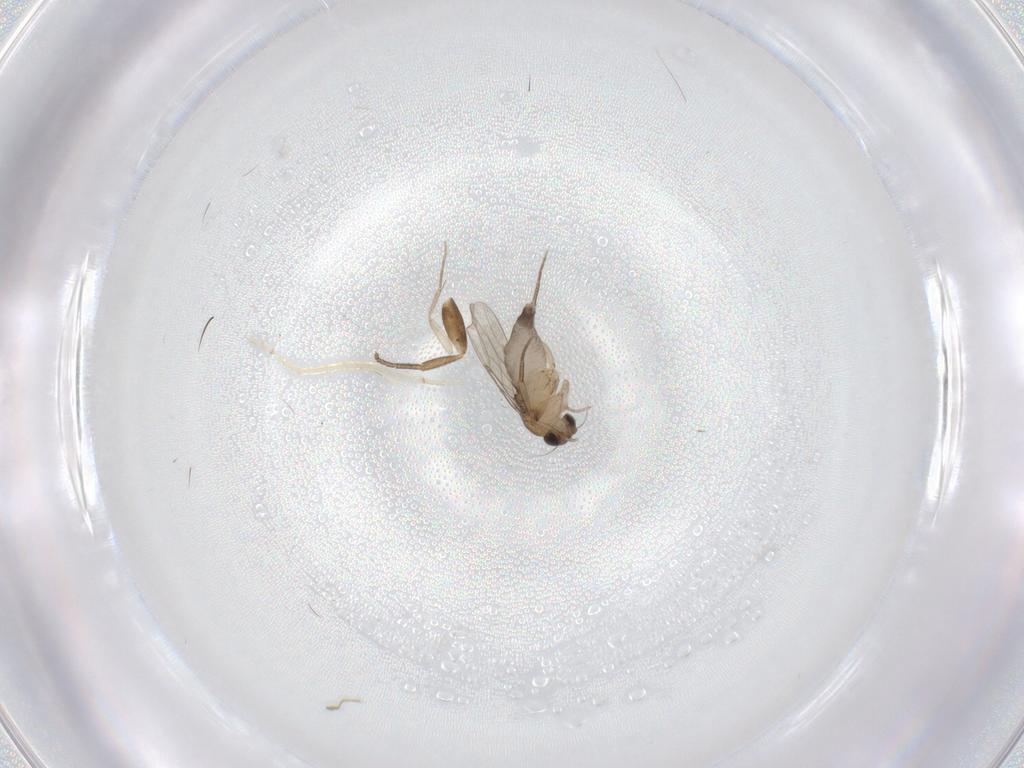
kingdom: Animalia
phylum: Arthropoda
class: Insecta
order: Diptera
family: Phoridae
